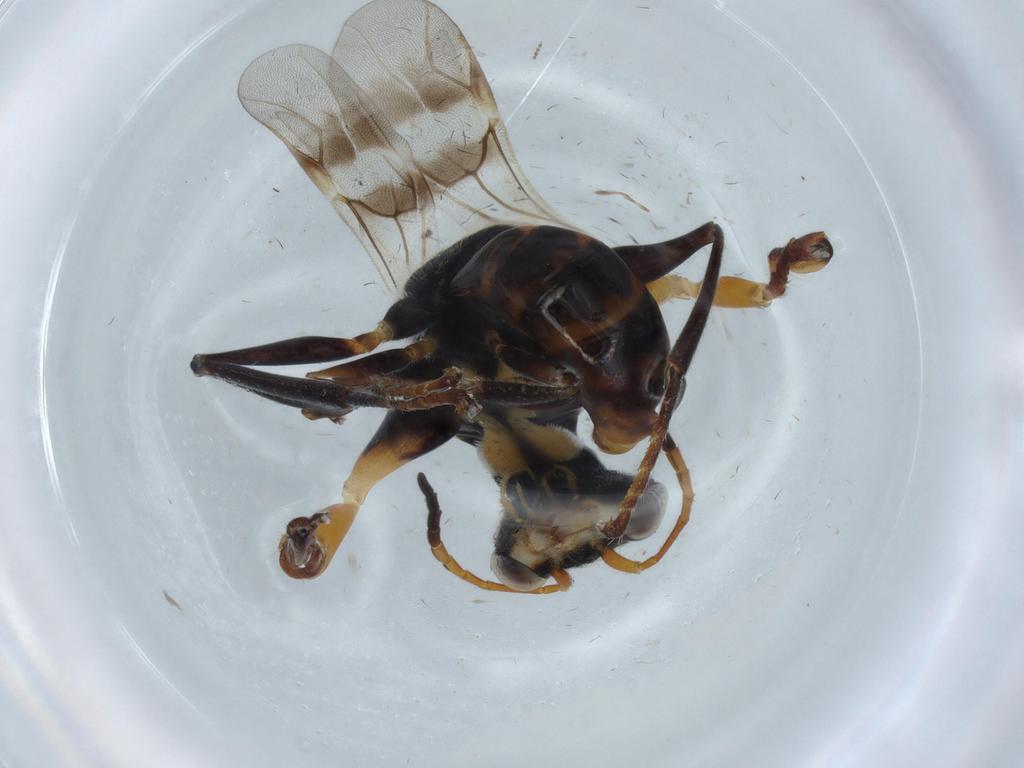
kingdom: Animalia
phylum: Arthropoda
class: Insecta
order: Hymenoptera
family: Dryinidae
